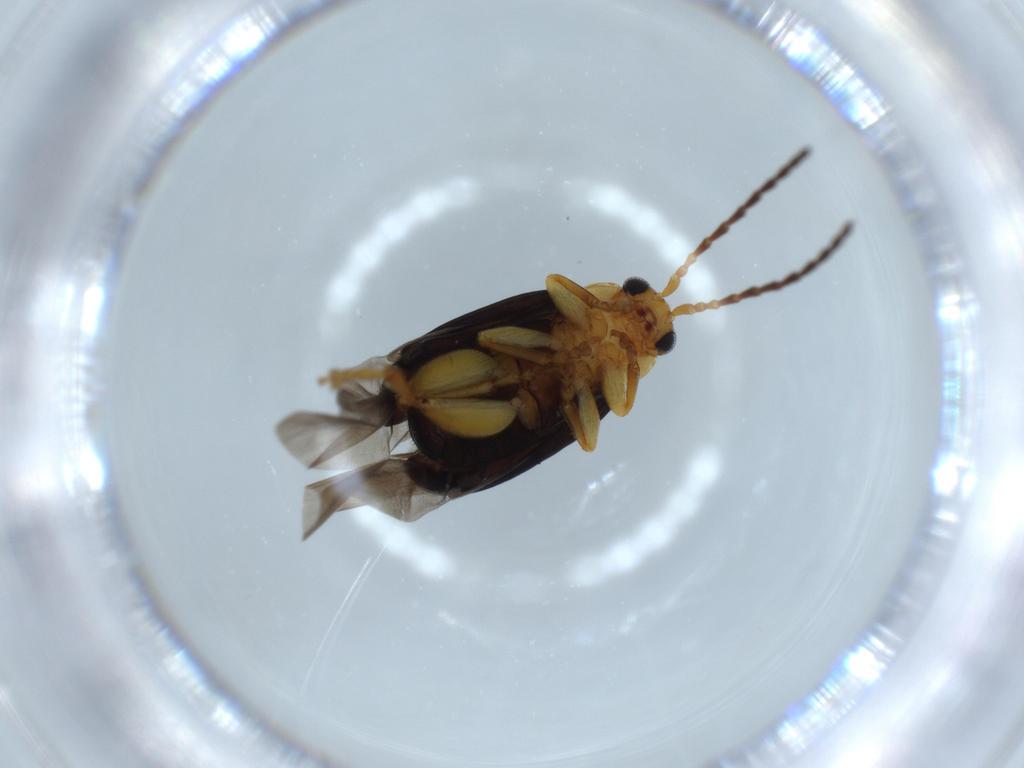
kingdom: Animalia
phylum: Arthropoda
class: Insecta
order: Coleoptera
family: Chrysomelidae
